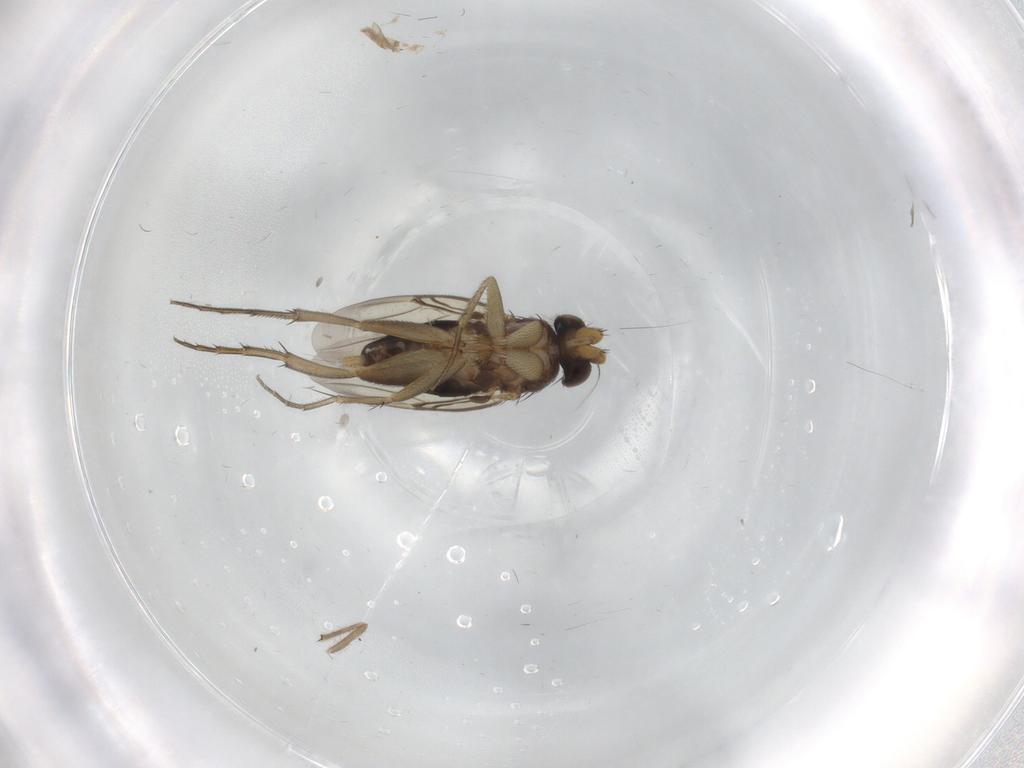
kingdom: Animalia
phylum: Arthropoda
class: Insecta
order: Diptera
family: Phoridae
